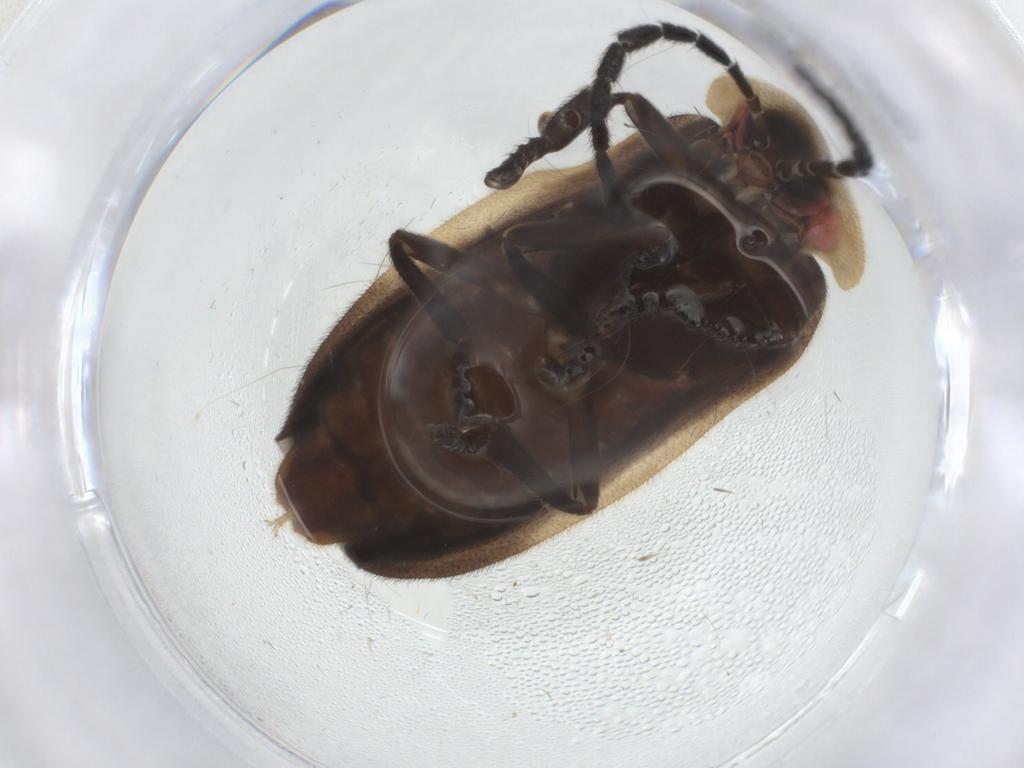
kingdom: Animalia
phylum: Arthropoda
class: Insecta
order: Coleoptera
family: Lampyridae
